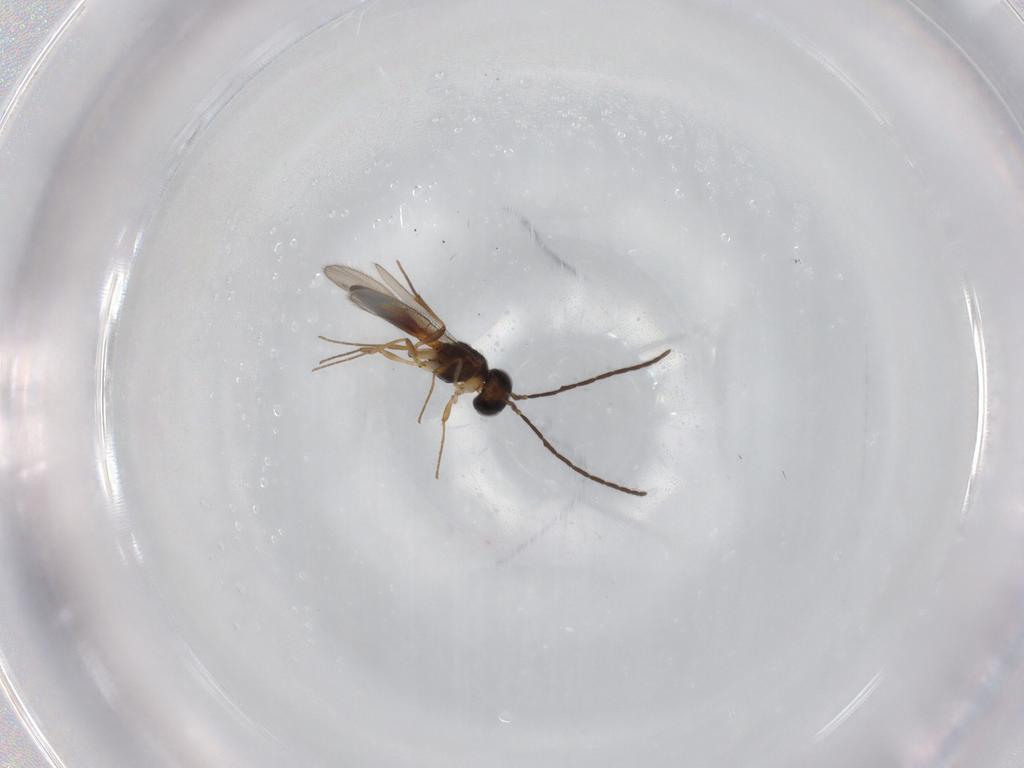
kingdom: Animalia
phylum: Arthropoda
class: Insecta
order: Hymenoptera
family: Scelionidae
